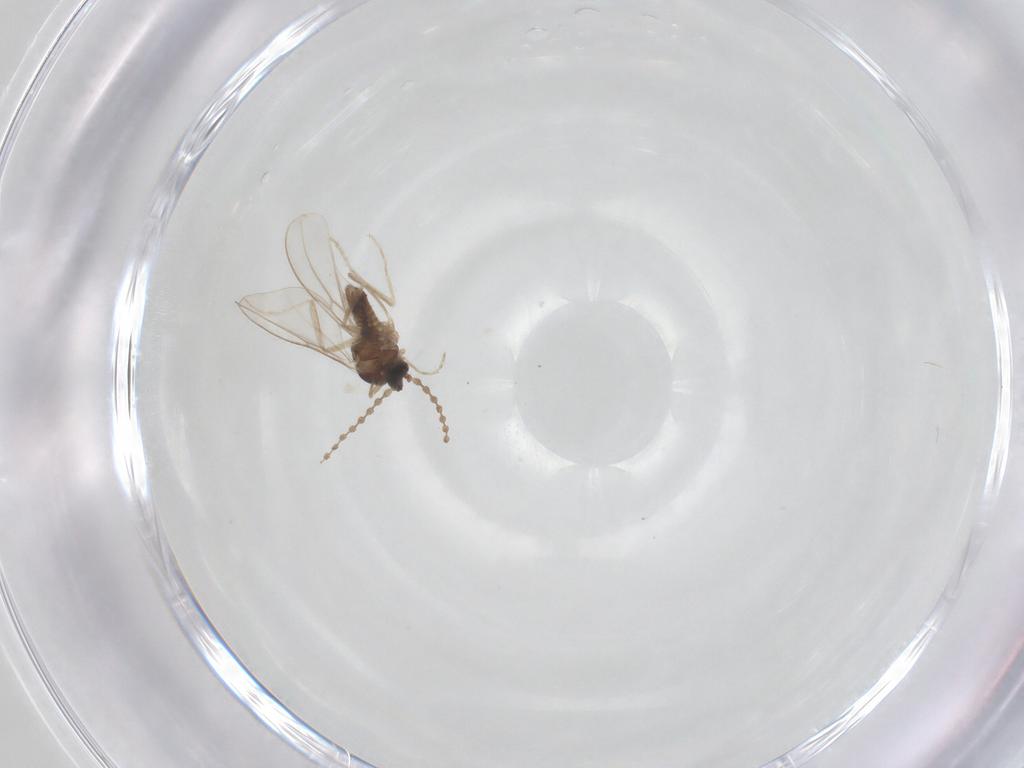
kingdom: Animalia
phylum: Arthropoda
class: Insecta
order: Diptera
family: Cecidomyiidae
